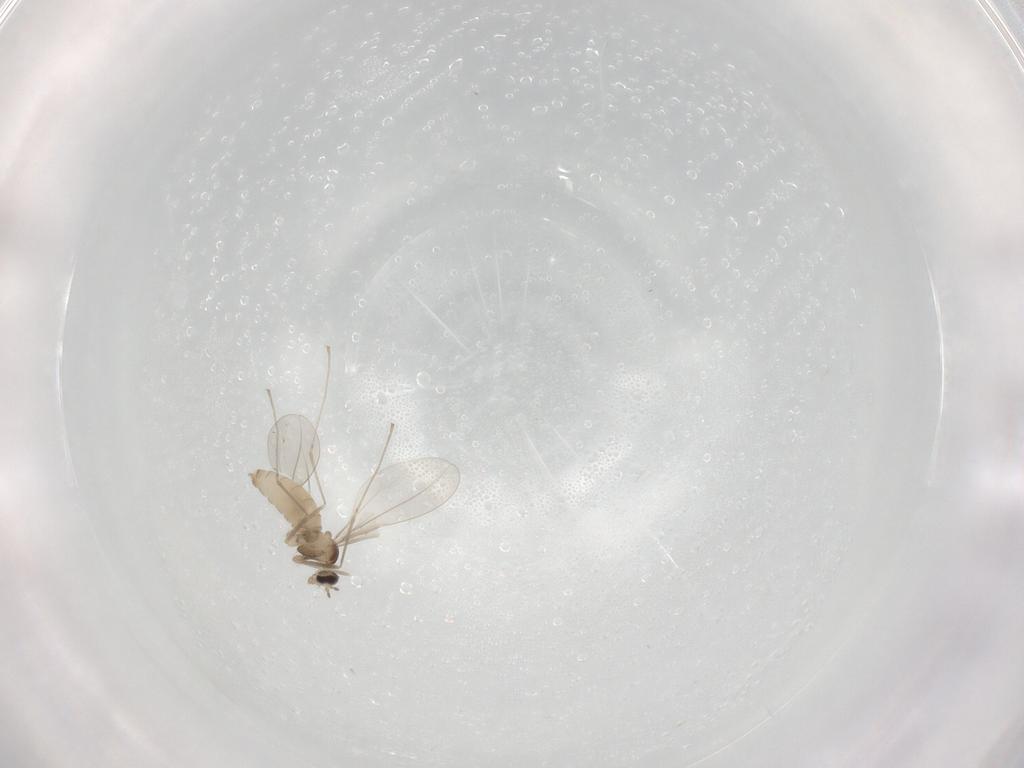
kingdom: Animalia
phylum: Arthropoda
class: Insecta
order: Diptera
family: Cecidomyiidae
